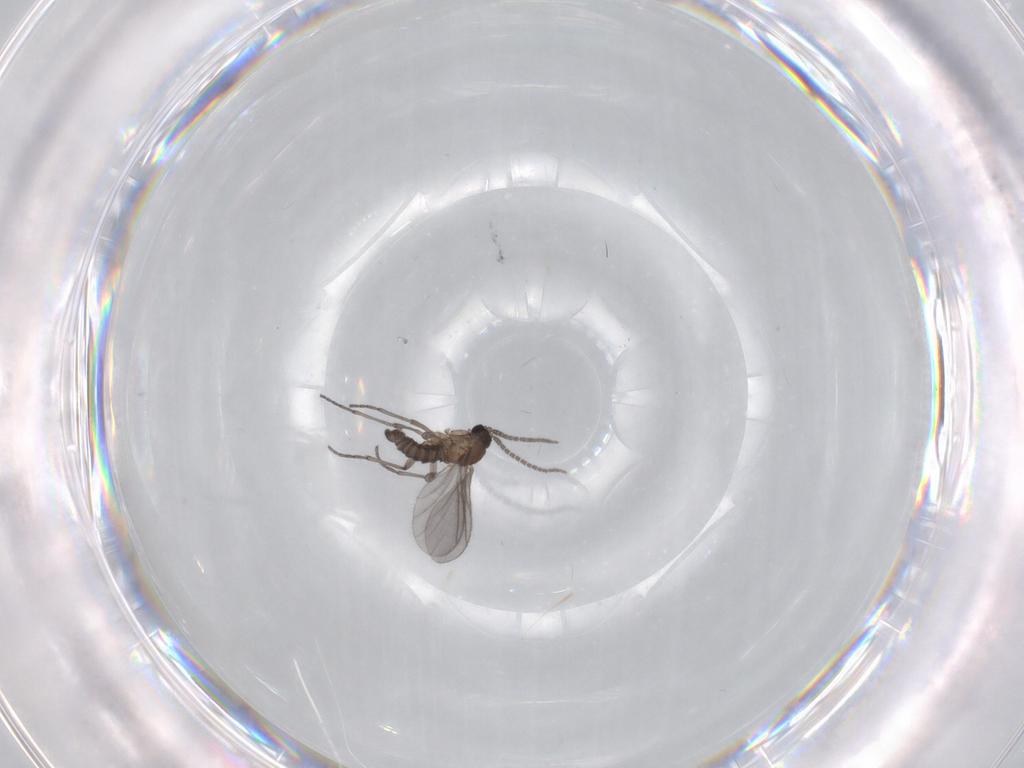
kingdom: Animalia
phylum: Arthropoda
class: Insecta
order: Diptera
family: Sciaridae
